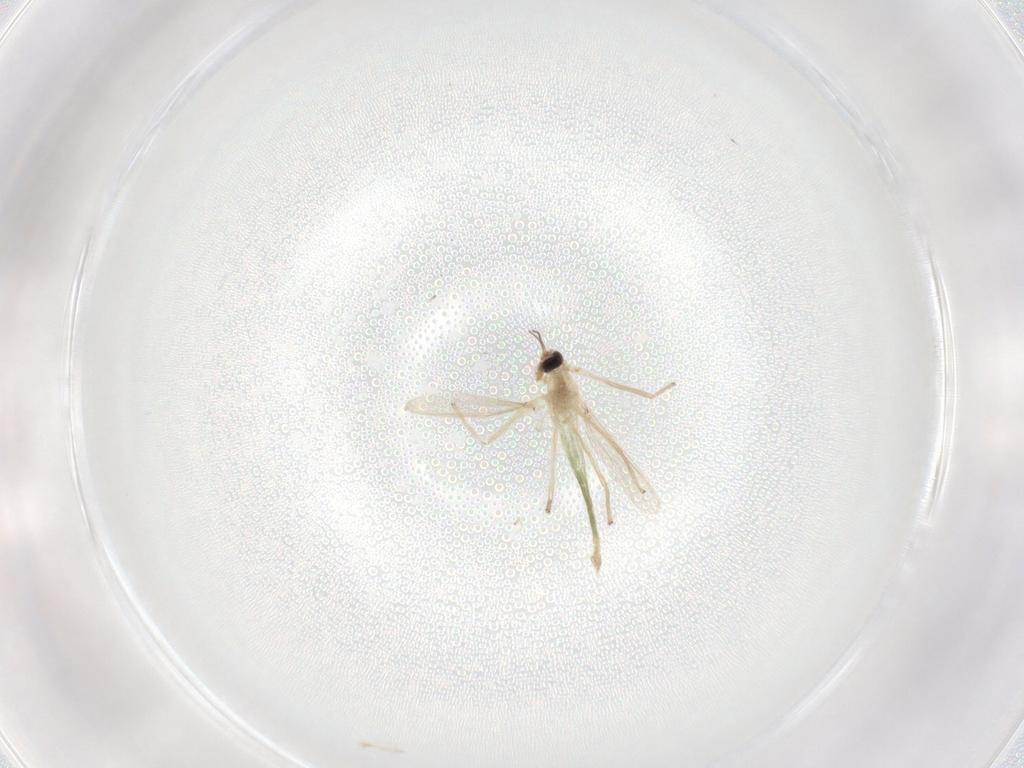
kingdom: Animalia
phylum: Arthropoda
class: Insecta
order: Diptera
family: Chironomidae
